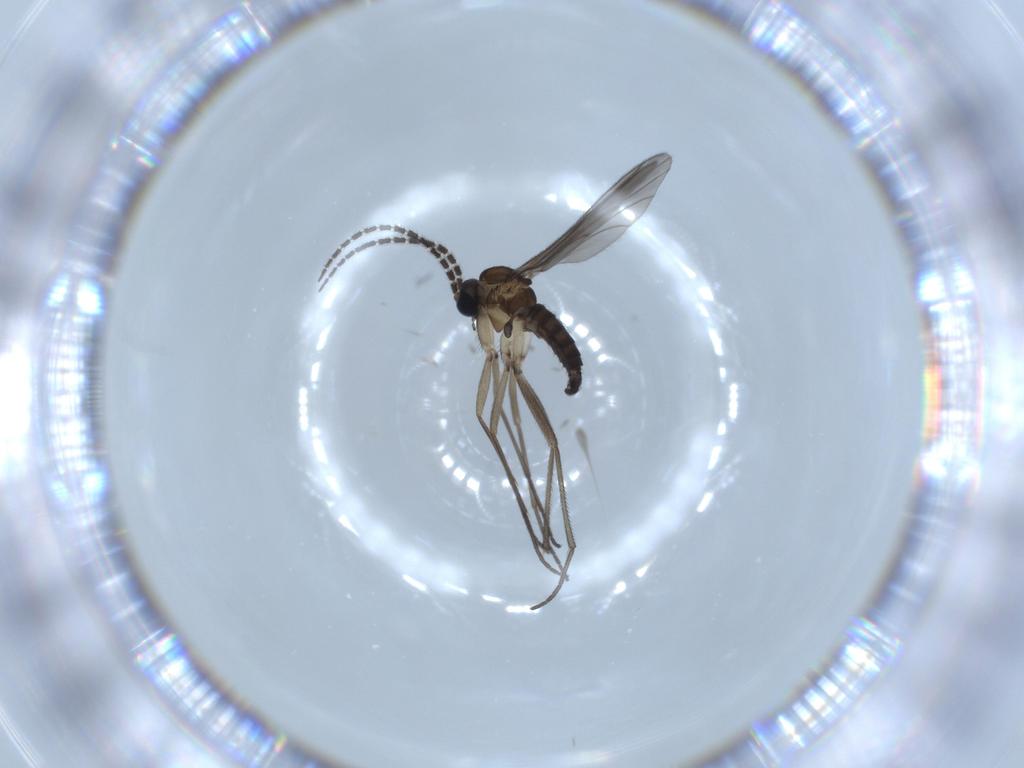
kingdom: Animalia
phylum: Arthropoda
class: Insecta
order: Diptera
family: Sciaridae
